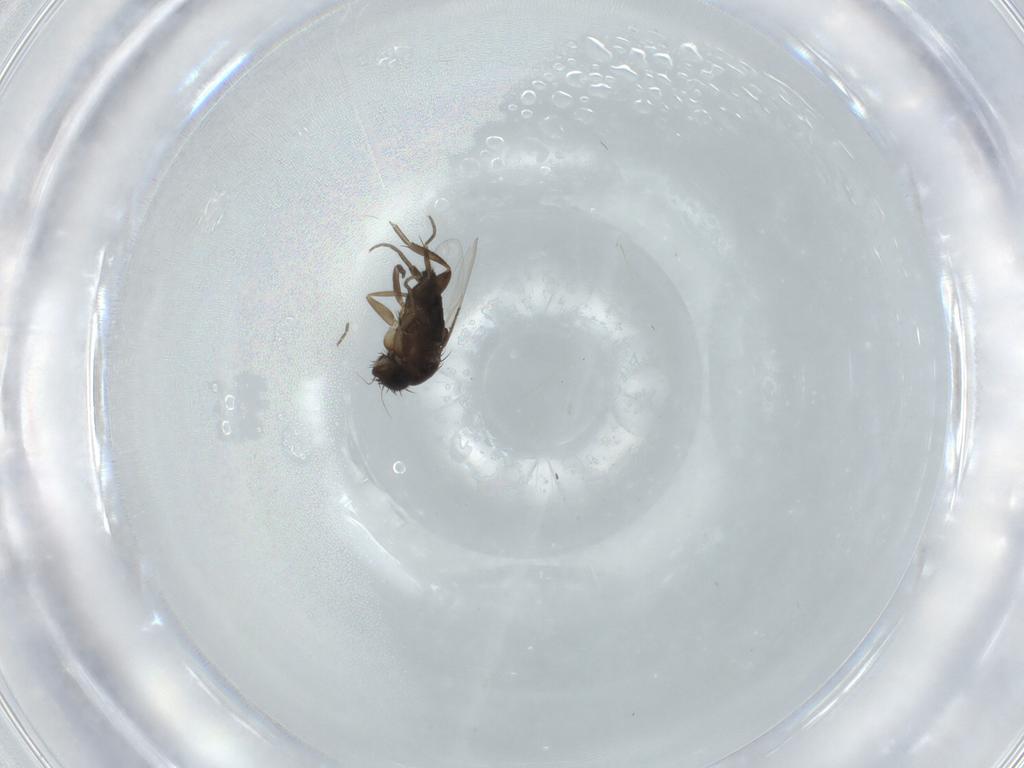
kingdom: Animalia
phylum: Arthropoda
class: Insecta
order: Diptera
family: Phoridae
